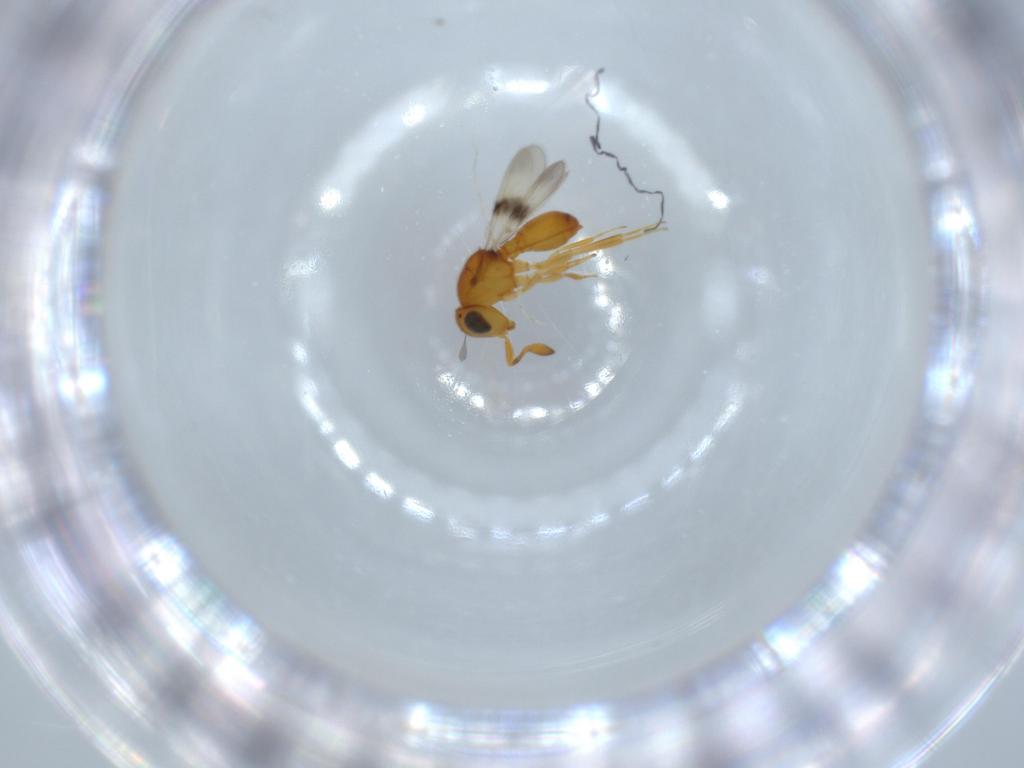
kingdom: Animalia
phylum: Arthropoda
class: Insecta
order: Hymenoptera
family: Scelionidae
